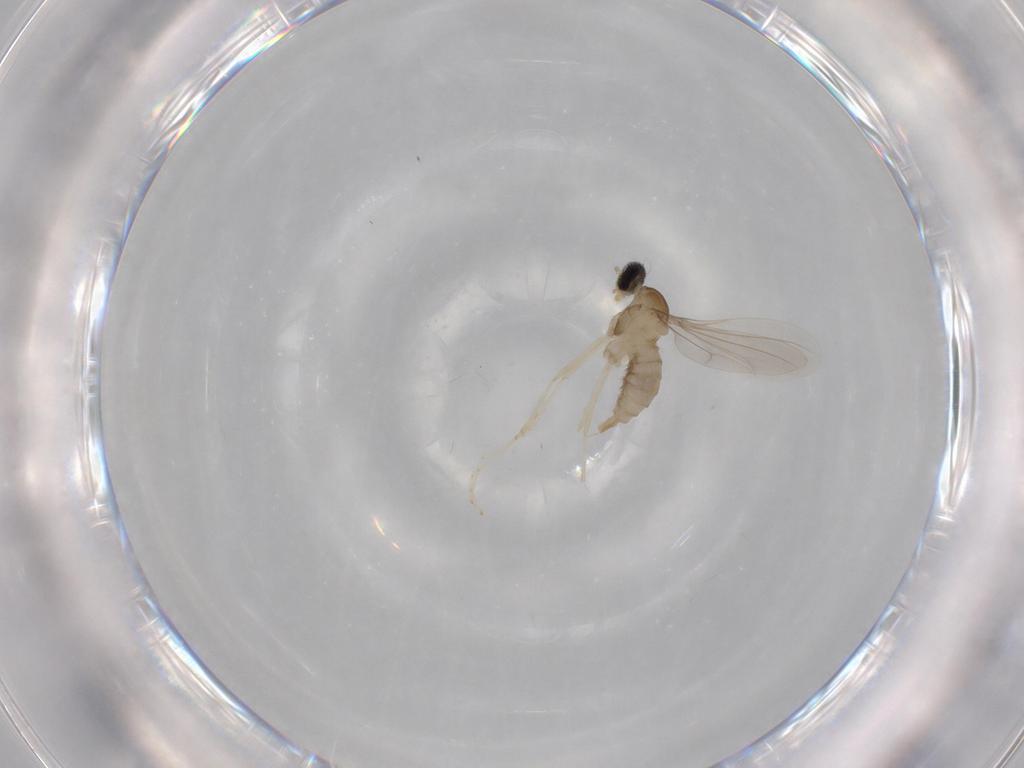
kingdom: Animalia
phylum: Arthropoda
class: Insecta
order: Diptera
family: Cecidomyiidae
